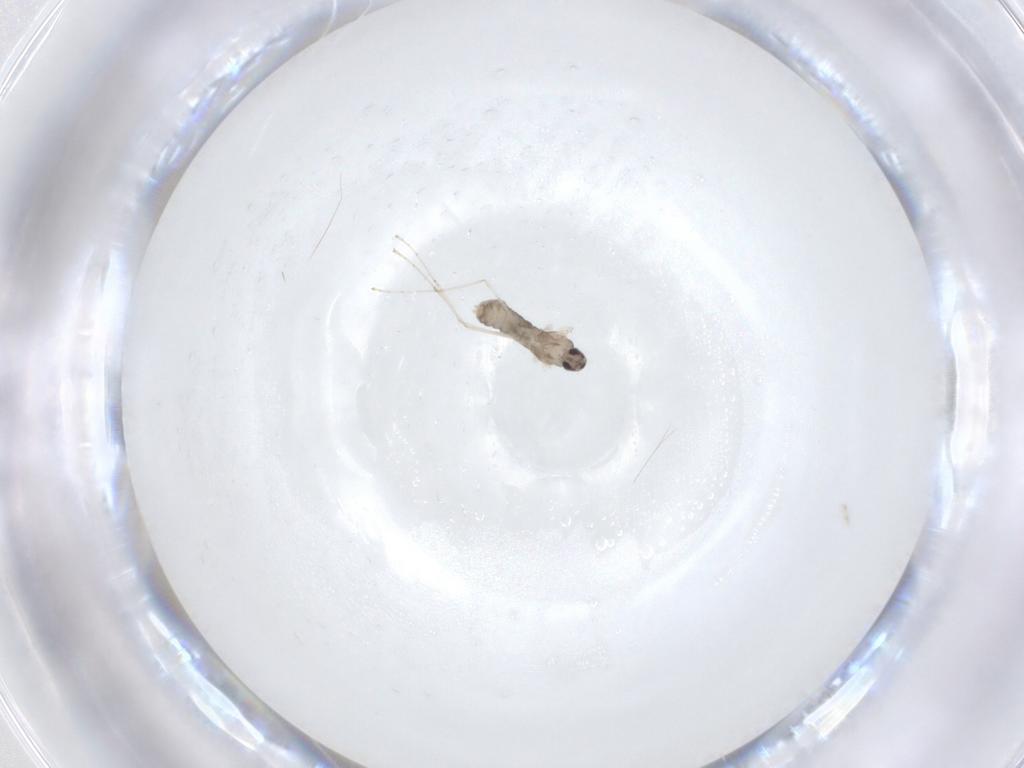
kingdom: Animalia
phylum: Arthropoda
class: Insecta
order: Diptera
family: Cecidomyiidae
